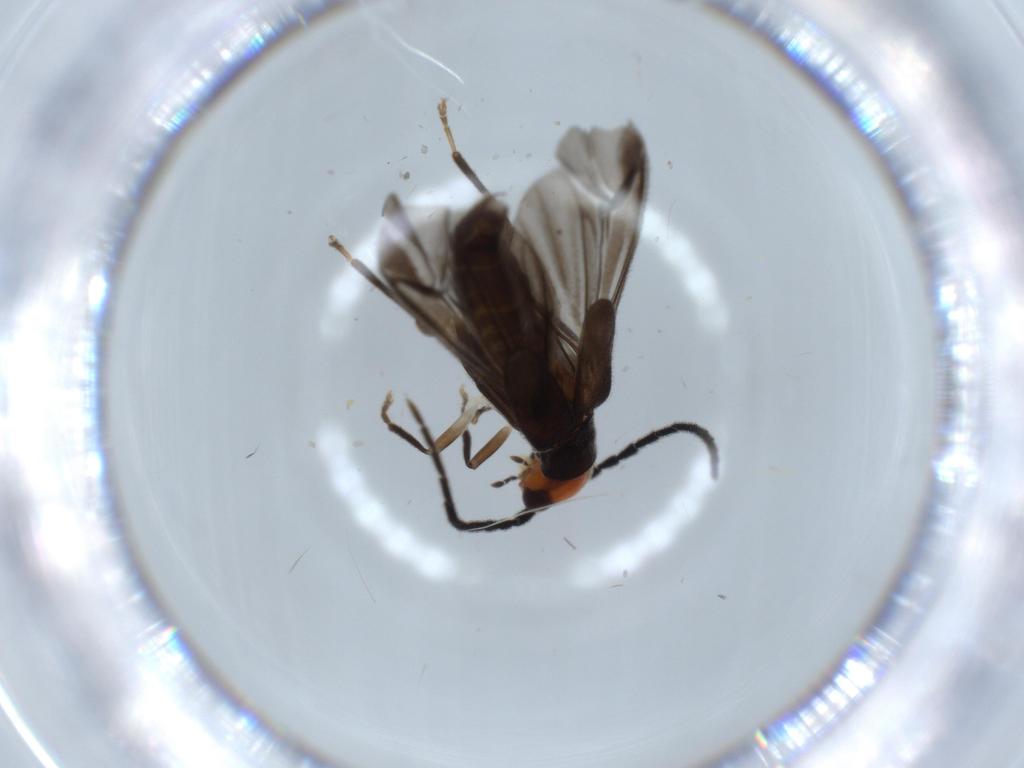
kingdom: Animalia
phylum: Arthropoda
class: Insecta
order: Coleoptera
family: Cantharidae
